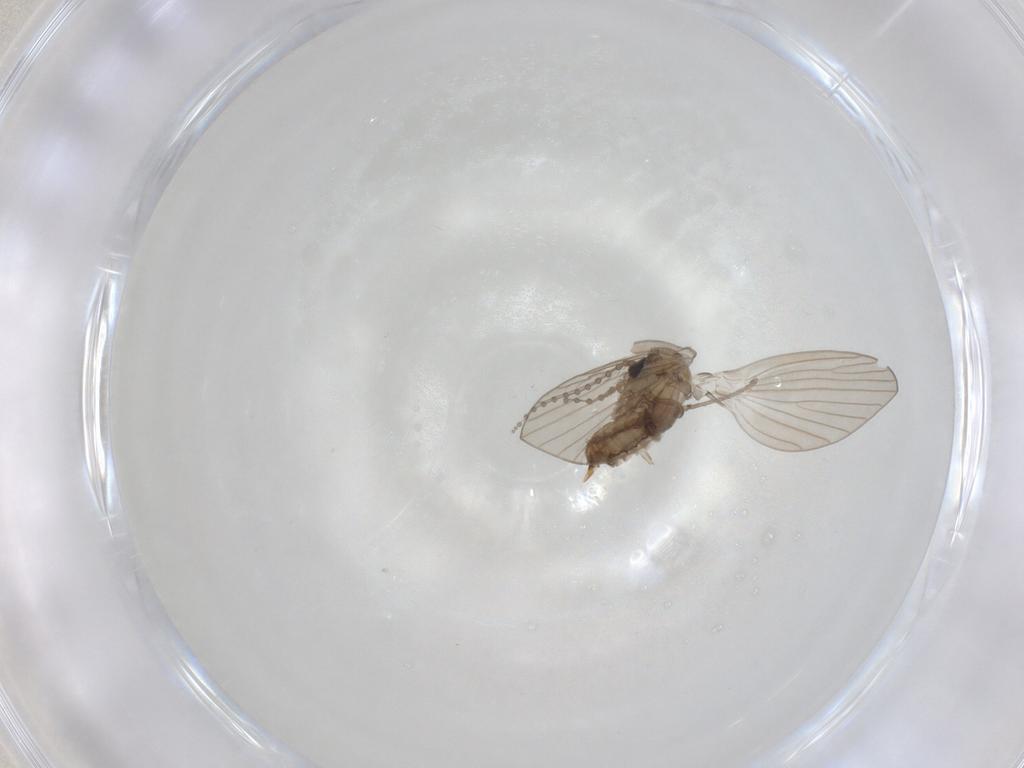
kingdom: Animalia
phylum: Arthropoda
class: Insecta
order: Diptera
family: Psychodidae
